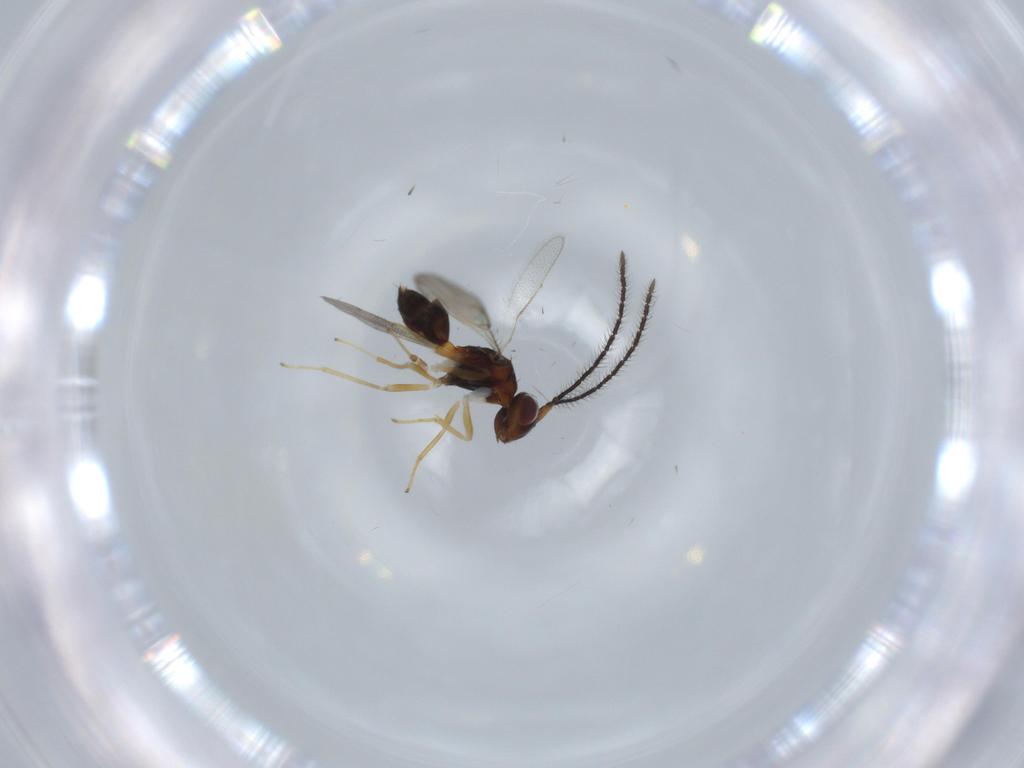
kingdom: Animalia
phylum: Arthropoda
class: Insecta
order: Hymenoptera
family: Diparidae
